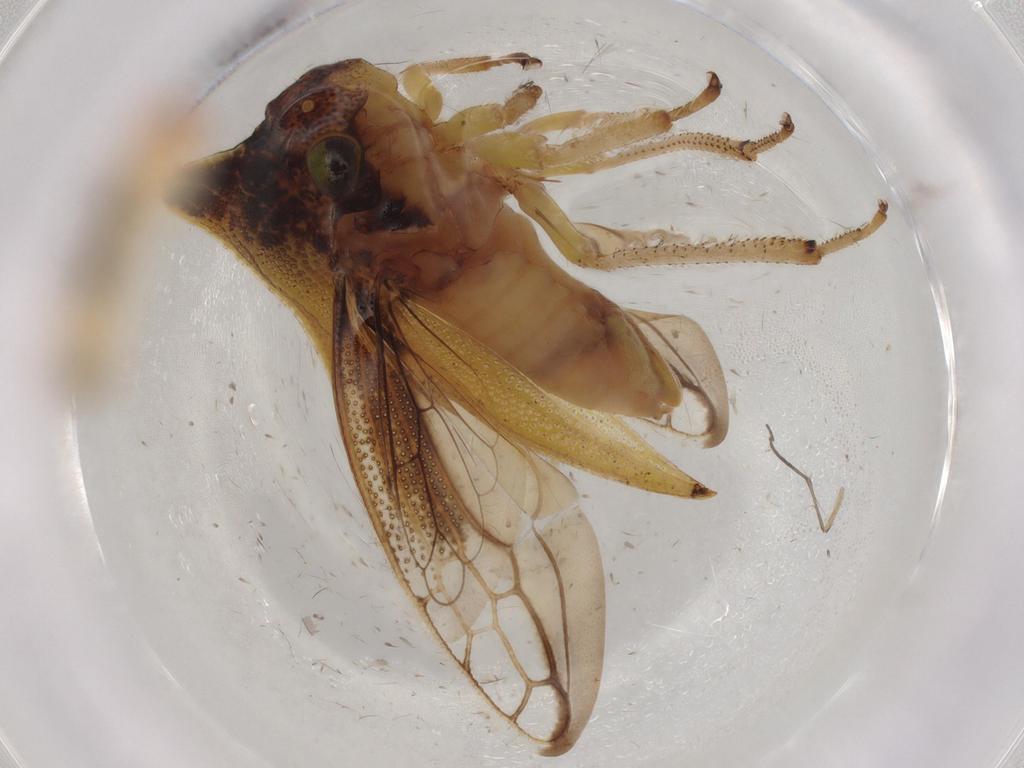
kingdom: Animalia
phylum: Arthropoda
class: Insecta
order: Hemiptera
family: Membracidae
